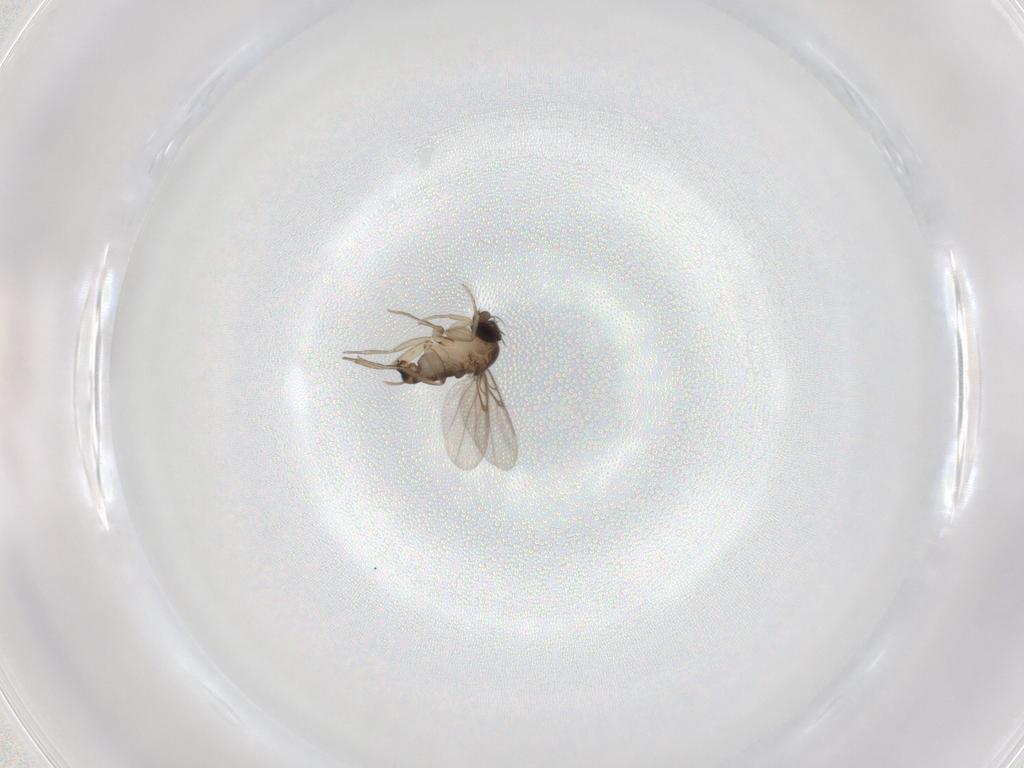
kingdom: Animalia
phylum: Arthropoda
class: Insecta
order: Diptera
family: Phoridae
